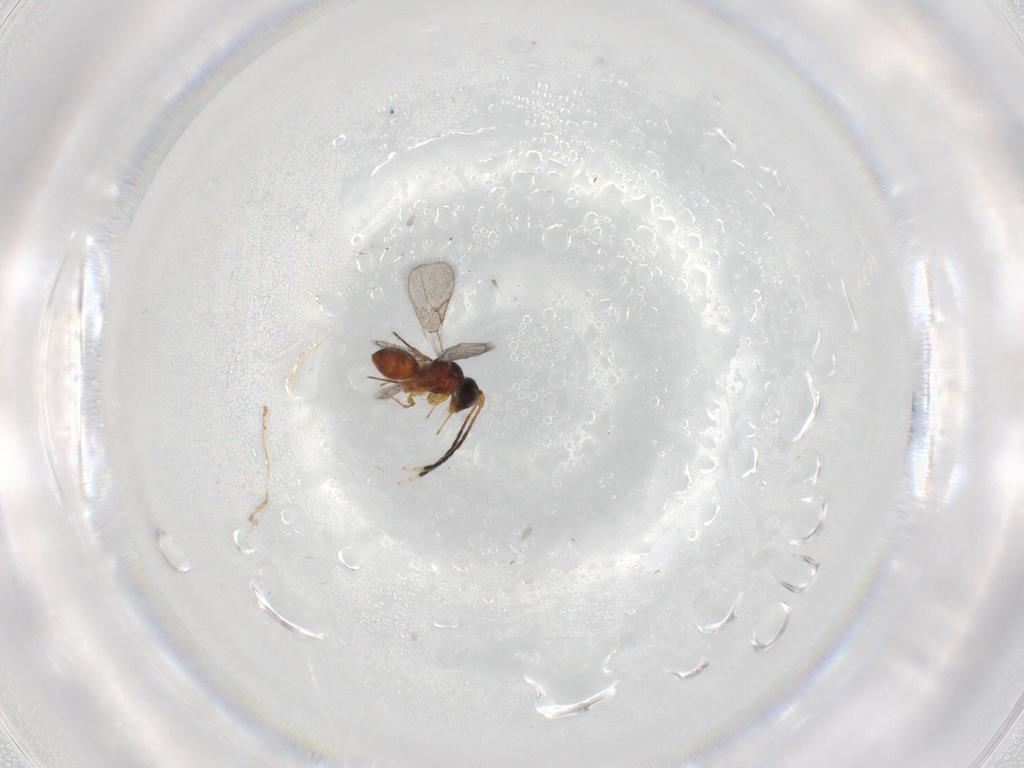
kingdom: Animalia
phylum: Arthropoda
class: Insecta
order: Hymenoptera
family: Figitidae
